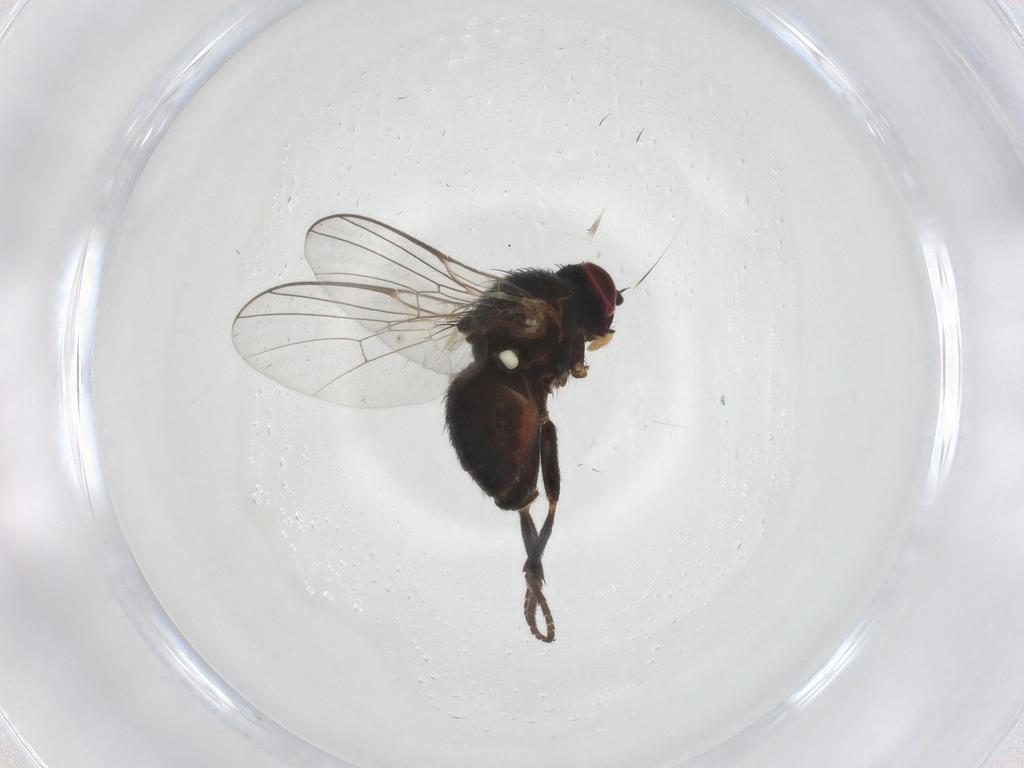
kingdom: Animalia
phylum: Arthropoda
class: Insecta
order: Diptera
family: Agromyzidae
